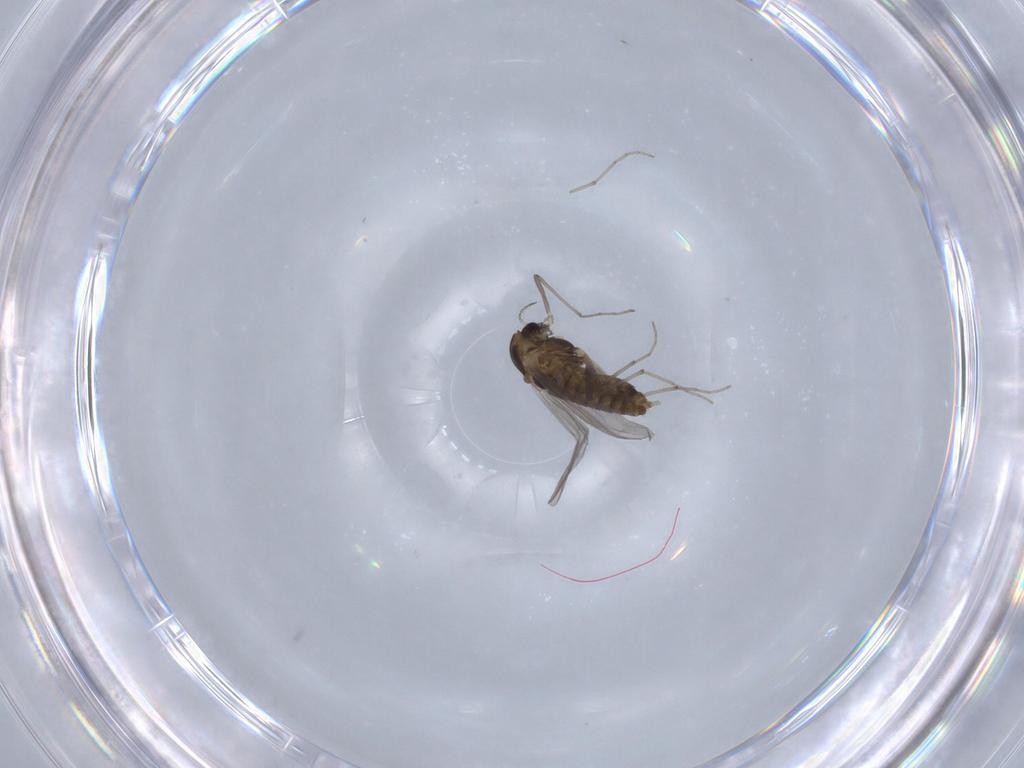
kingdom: Animalia
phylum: Arthropoda
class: Insecta
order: Diptera
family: Chironomidae
